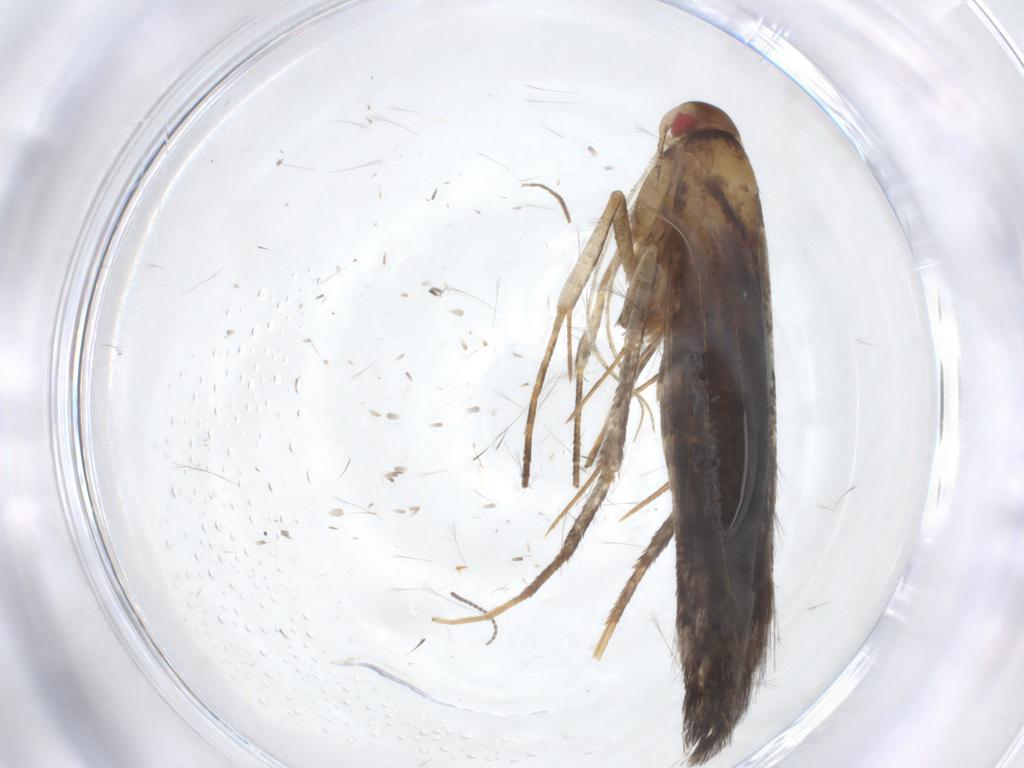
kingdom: Animalia
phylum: Arthropoda
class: Insecta
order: Lepidoptera
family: Cosmopterigidae
